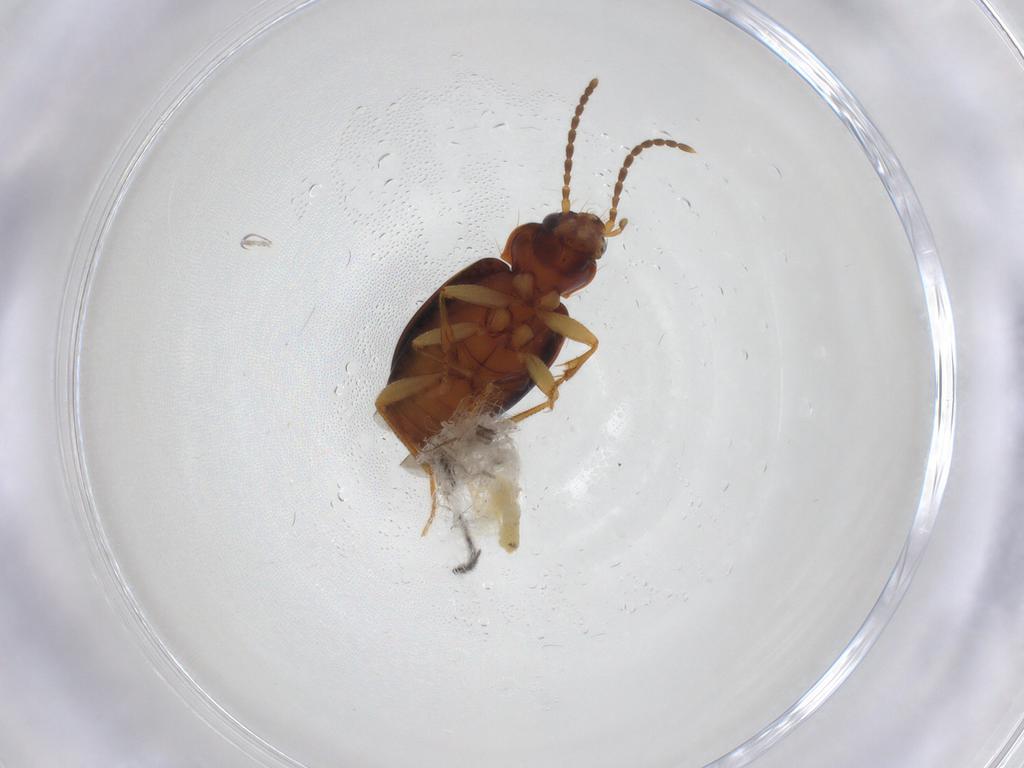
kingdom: Animalia
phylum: Arthropoda
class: Insecta
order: Coleoptera
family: Carabidae
